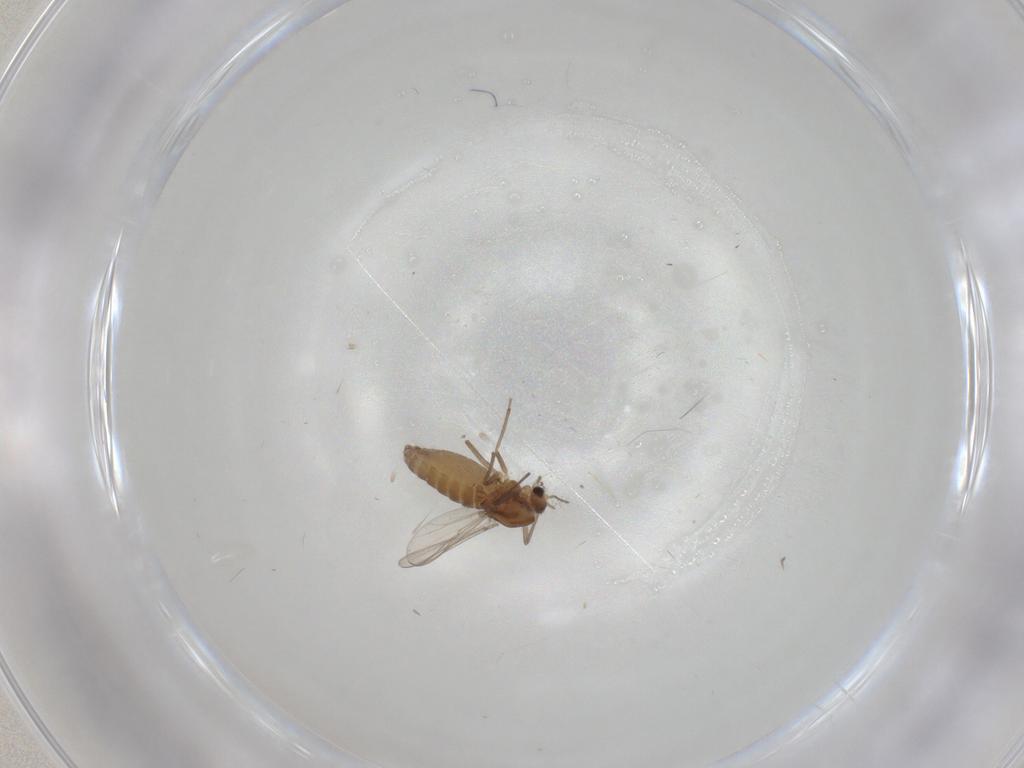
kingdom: Animalia
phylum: Arthropoda
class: Insecta
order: Diptera
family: Chironomidae
